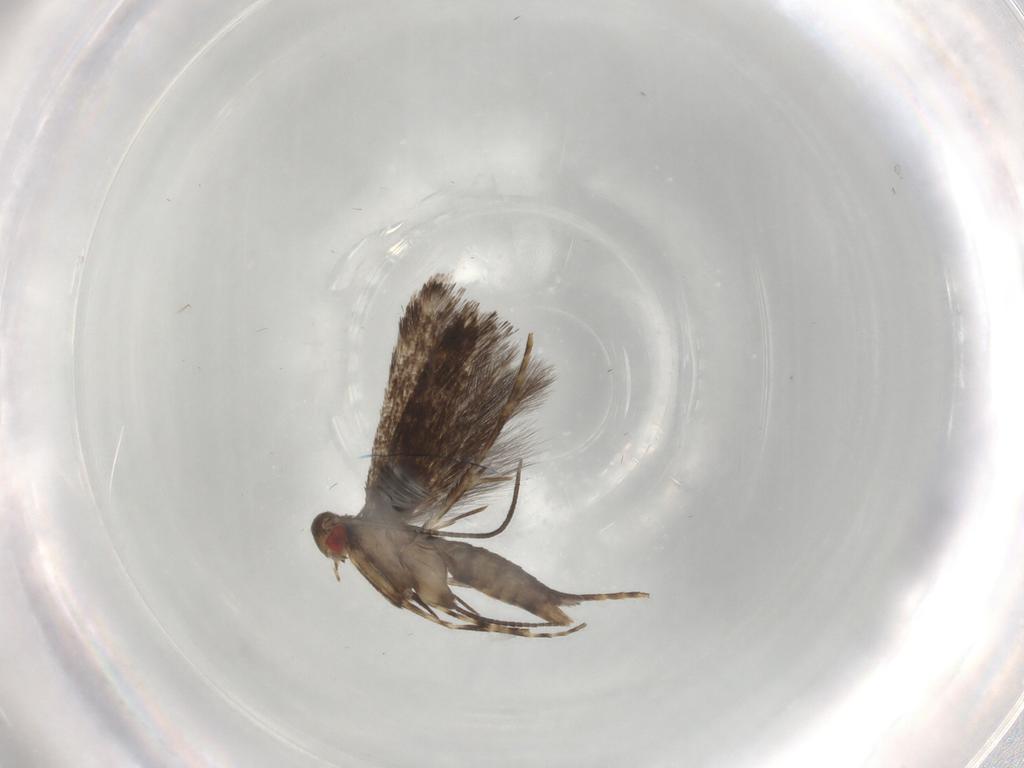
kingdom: Animalia
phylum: Arthropoda
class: Insecta
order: Lepidoptera
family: Gracillariidae
